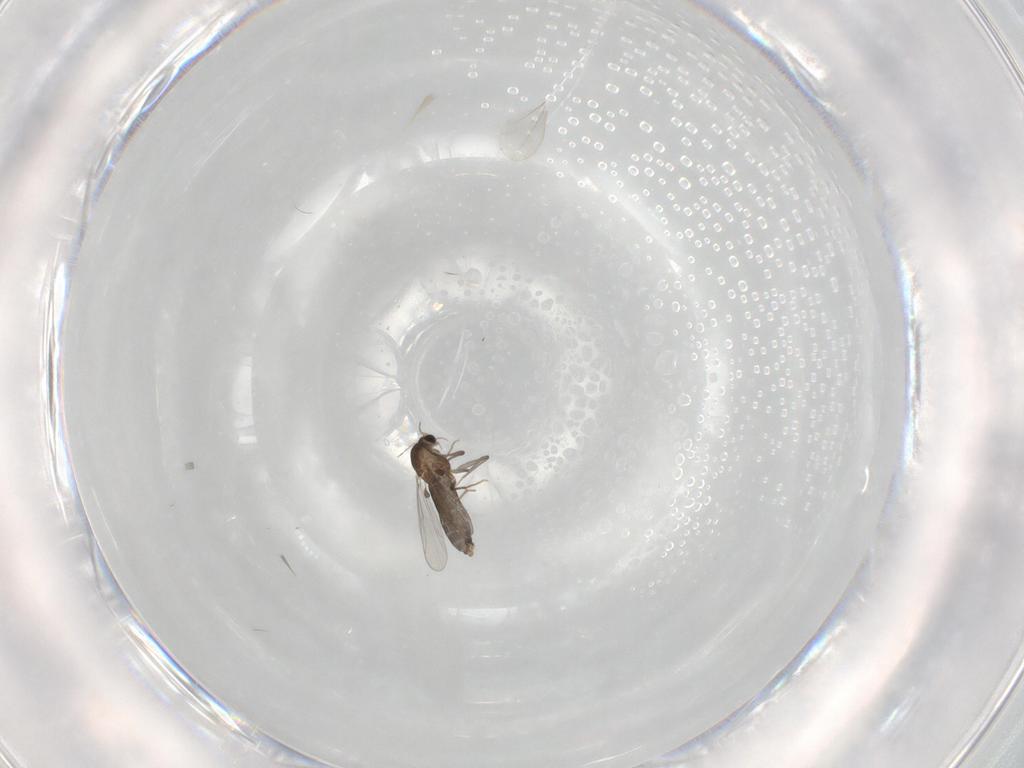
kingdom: Animalia
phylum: Arthropoda
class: Insecta
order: Diptera
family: Chironomidae
